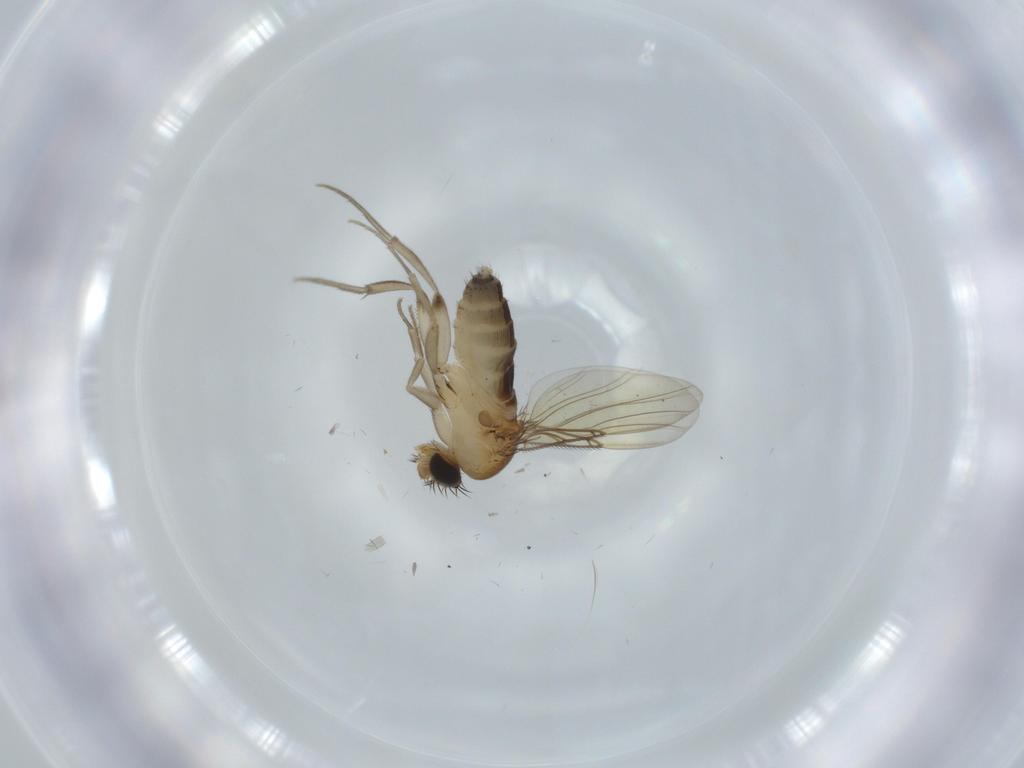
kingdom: Animalia
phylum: Arthropoda
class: Insecta
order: Diptera
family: Phoridae
